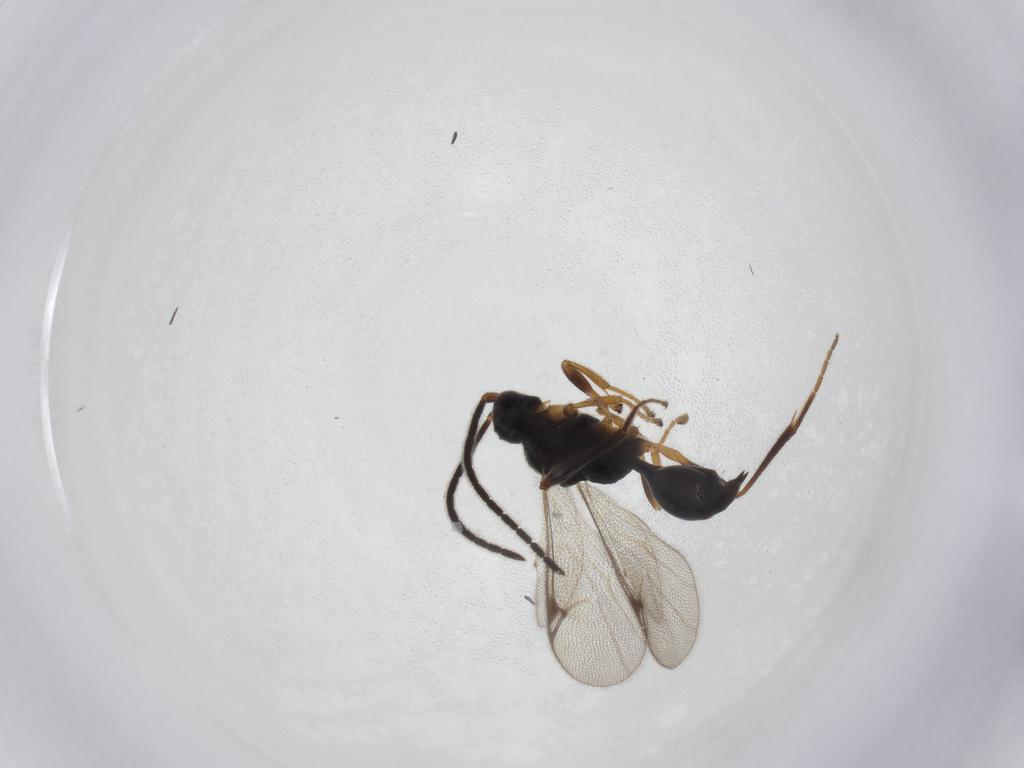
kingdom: Animalia
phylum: Arthropoda
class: Insecta
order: Hymenoptera
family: Proctotrupidae
